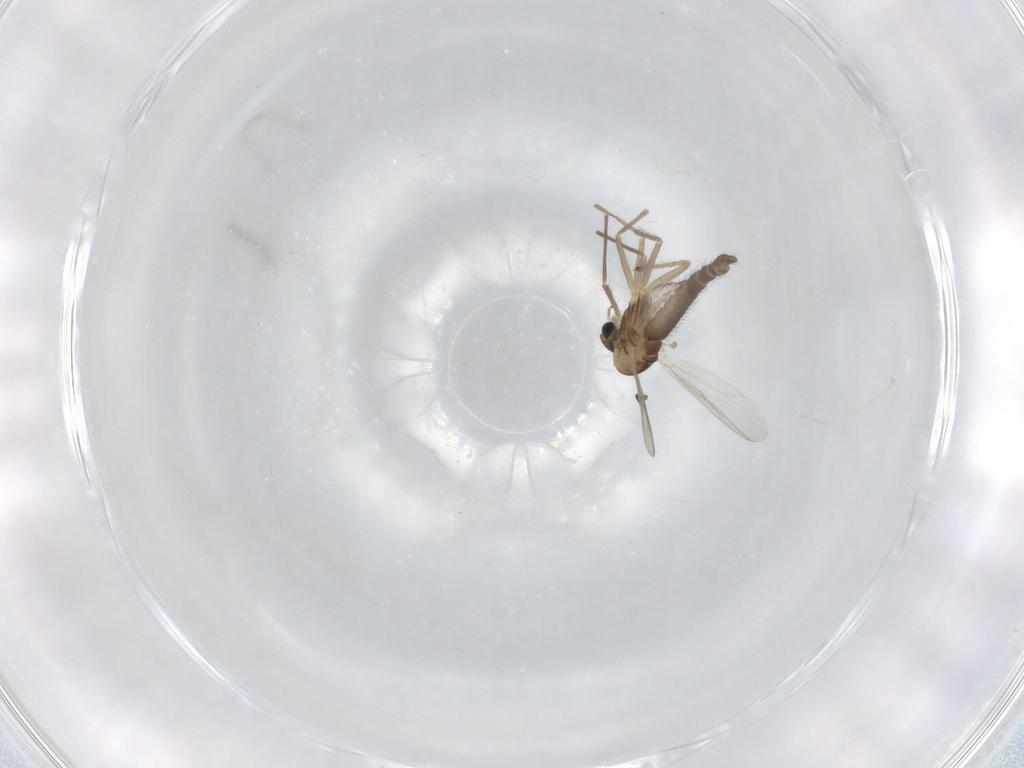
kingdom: Animalia
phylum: Arthropoda
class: Insecta
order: Diptera
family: Chironomidae
